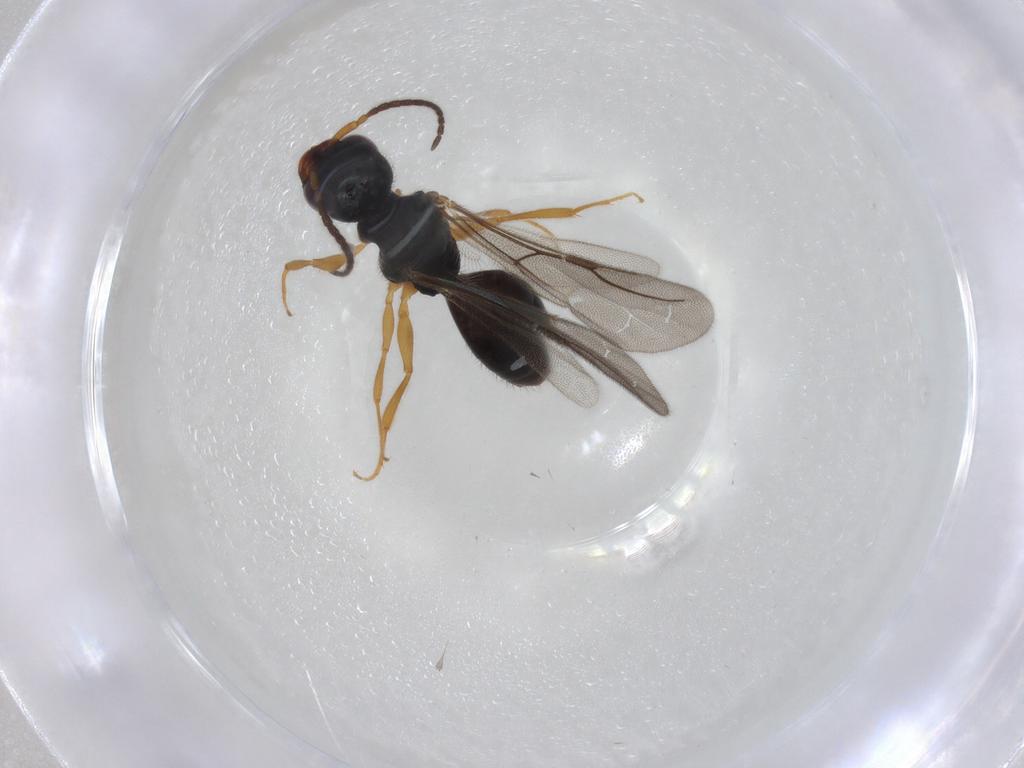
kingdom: Animalia
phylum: Arthropoda
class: Insecta
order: Hymenoptera
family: Bethylidae
